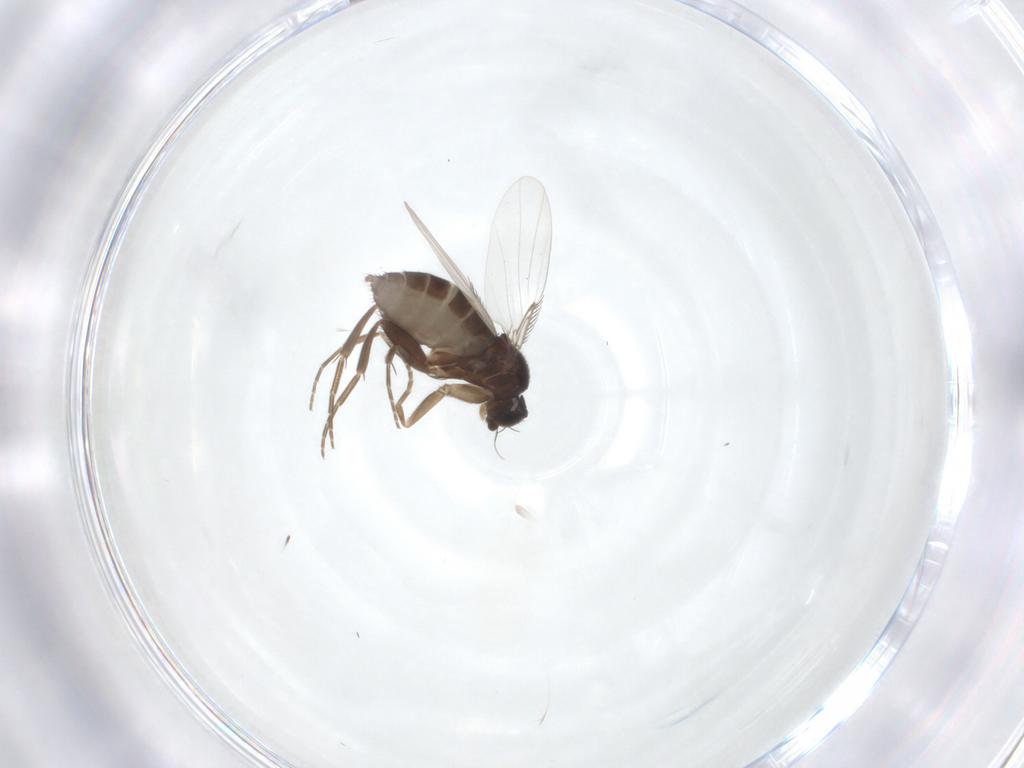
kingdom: Animalia
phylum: Arthropoda
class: Insecta
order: Diptera
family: Phoridae
